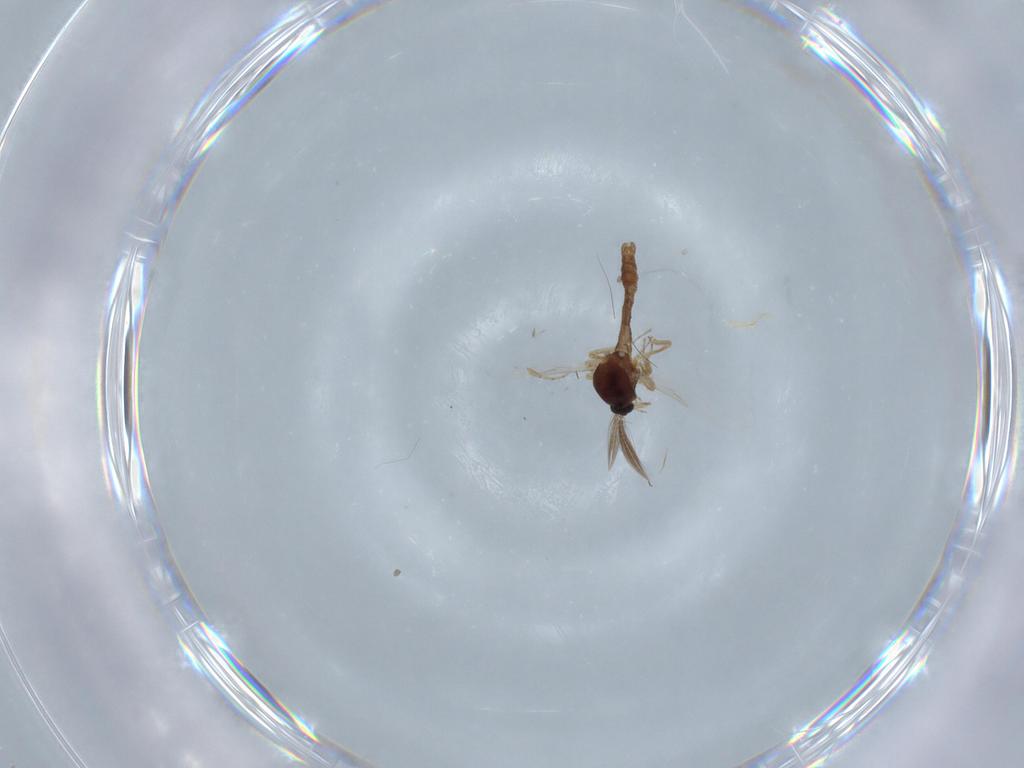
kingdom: Animalia
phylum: Arthropoda
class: Insecta
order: Diptera
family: Ceratopogonidae
